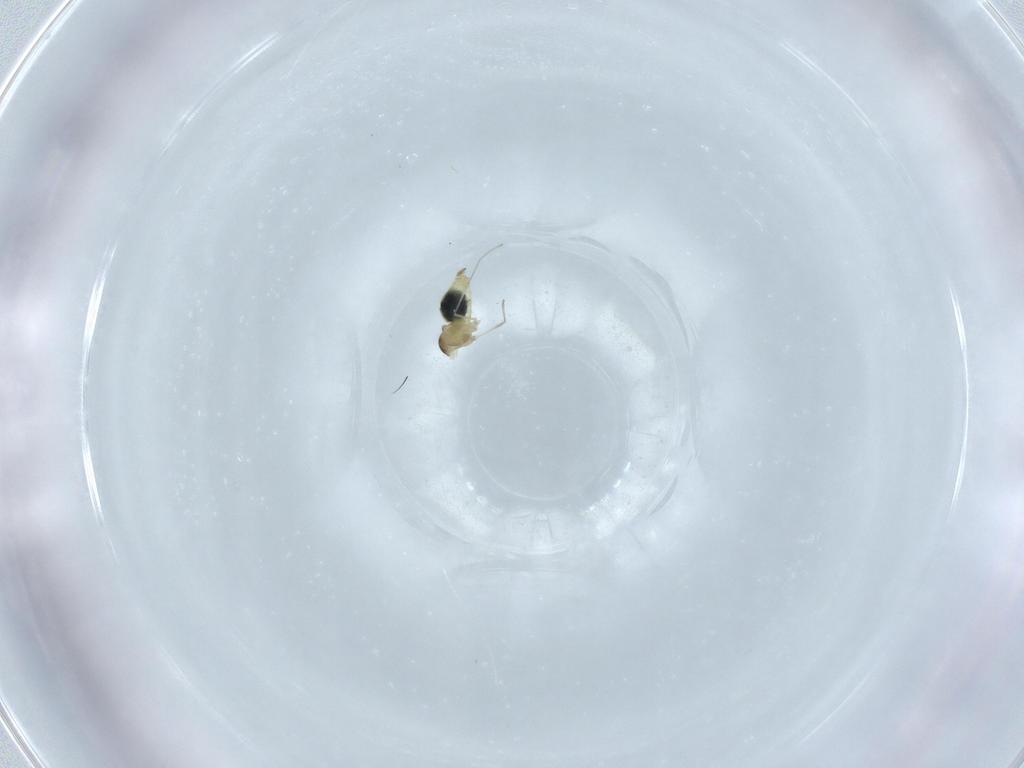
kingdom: Animalia
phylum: Arthropoda
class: Insecta
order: Diptera
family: Cecidomyiidae
